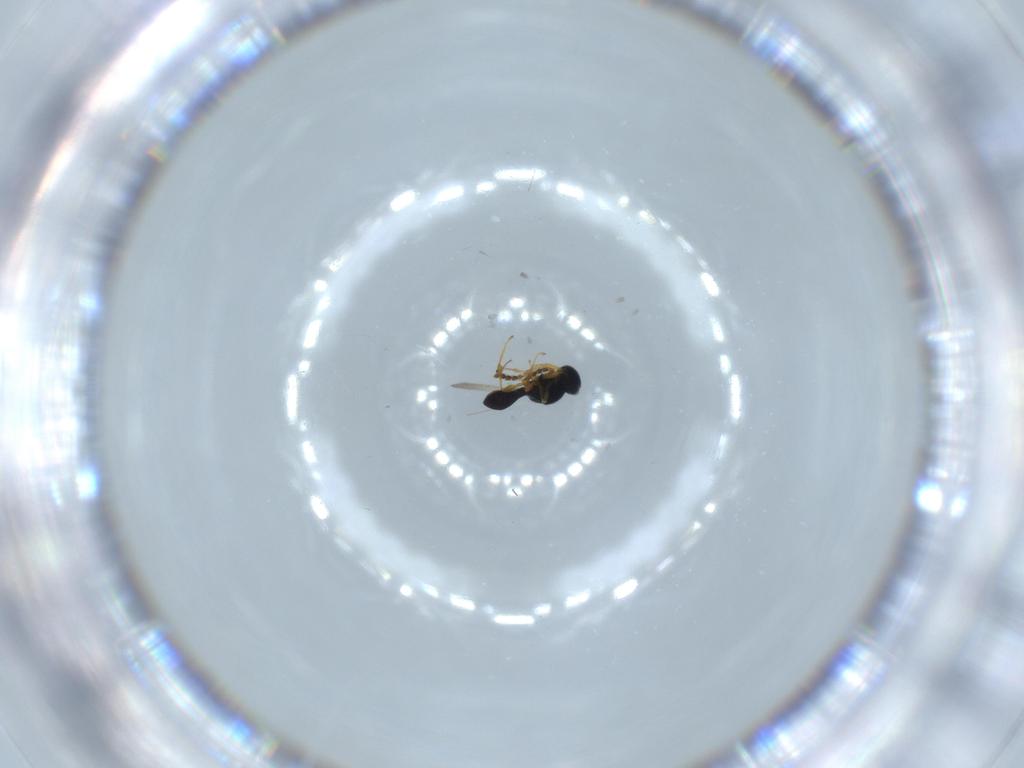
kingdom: Animalia
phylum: Arthropoda
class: Insecta
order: Hymenoptera
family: Platygastridae
